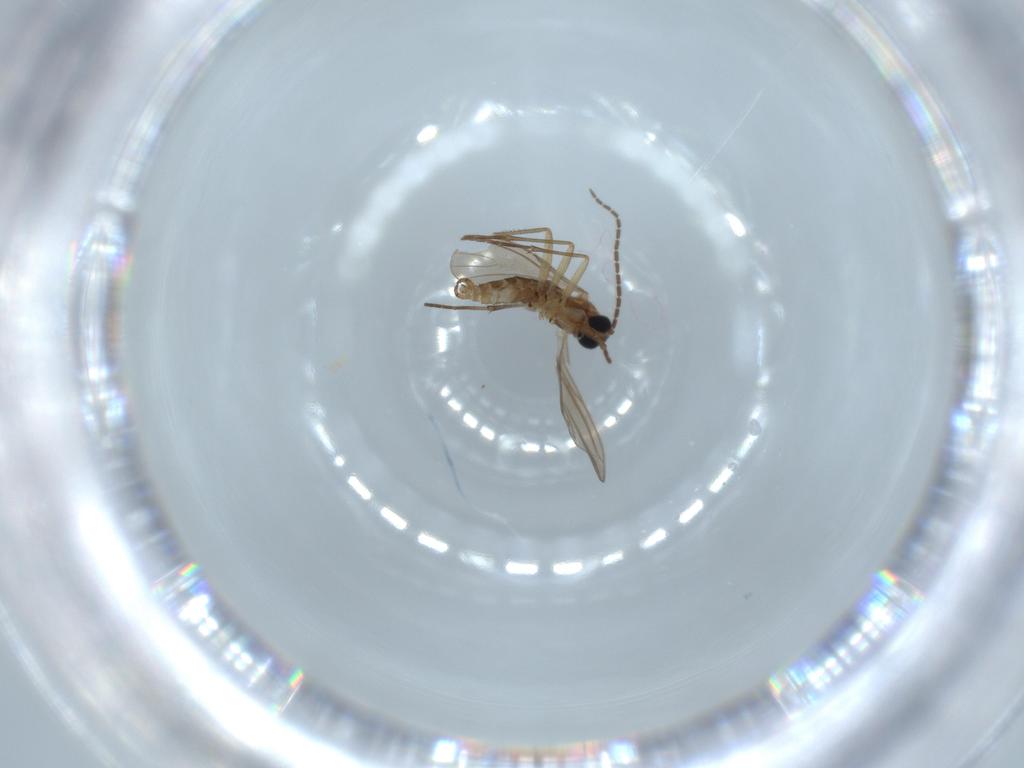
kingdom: Animalia
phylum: Arthropoda
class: Insecta
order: Diptera
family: Muscidae
